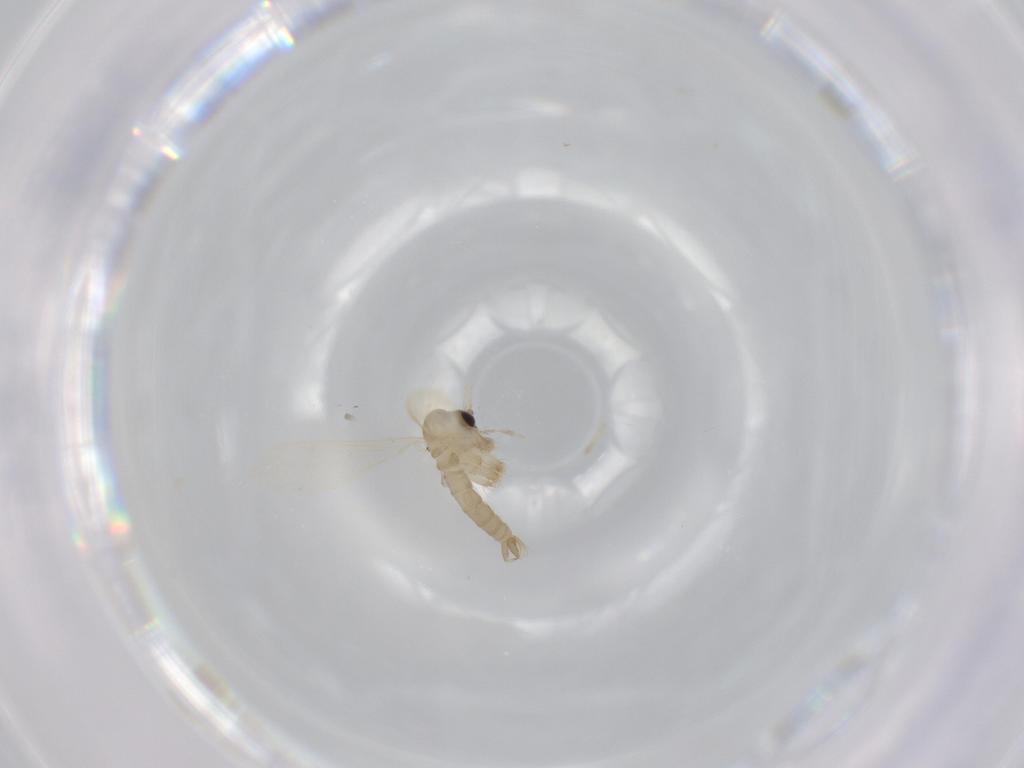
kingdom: Animalia
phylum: Arthropoda
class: Insecta
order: Diptera
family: Psychodidae
